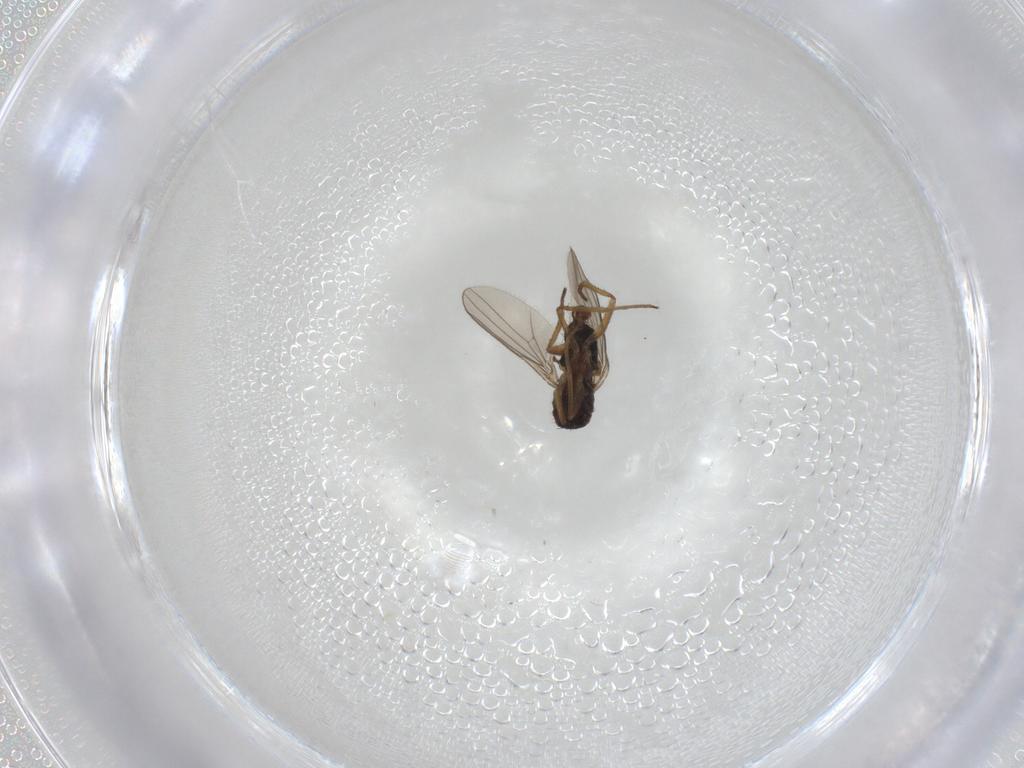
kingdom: Animalia
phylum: Arthropoda
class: Insecta
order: Diptera
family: Dolichopodidae
